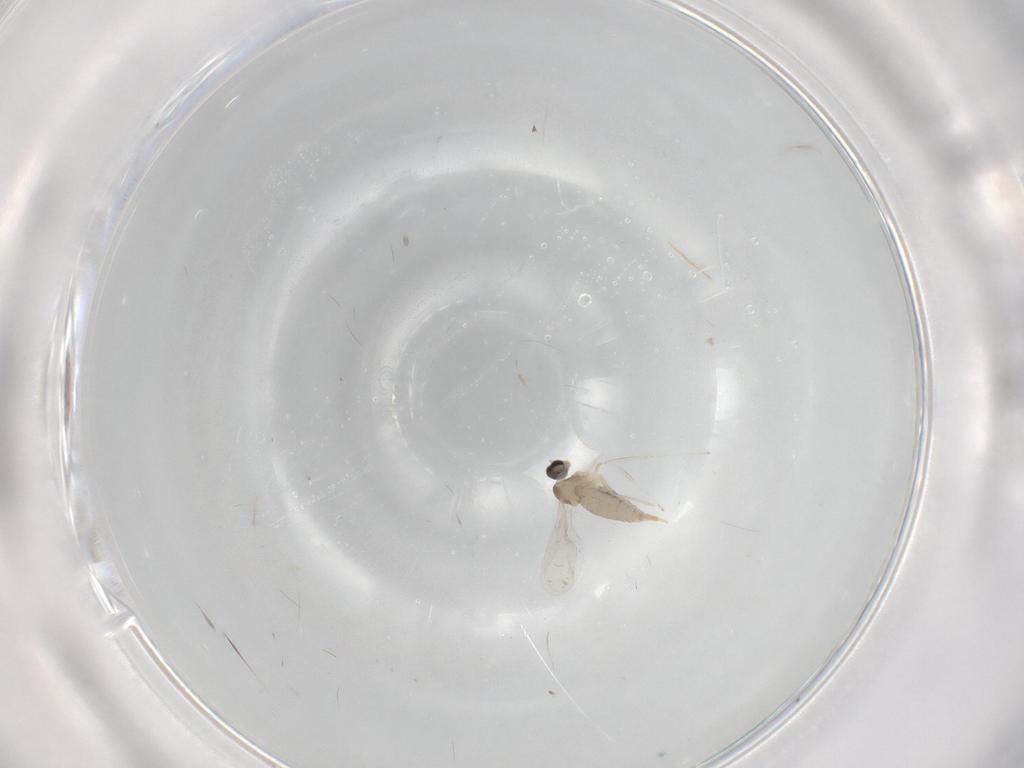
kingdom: Animalia
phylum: Arthropoda
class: Insecta
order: Diptera
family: Cecidomyiidae
